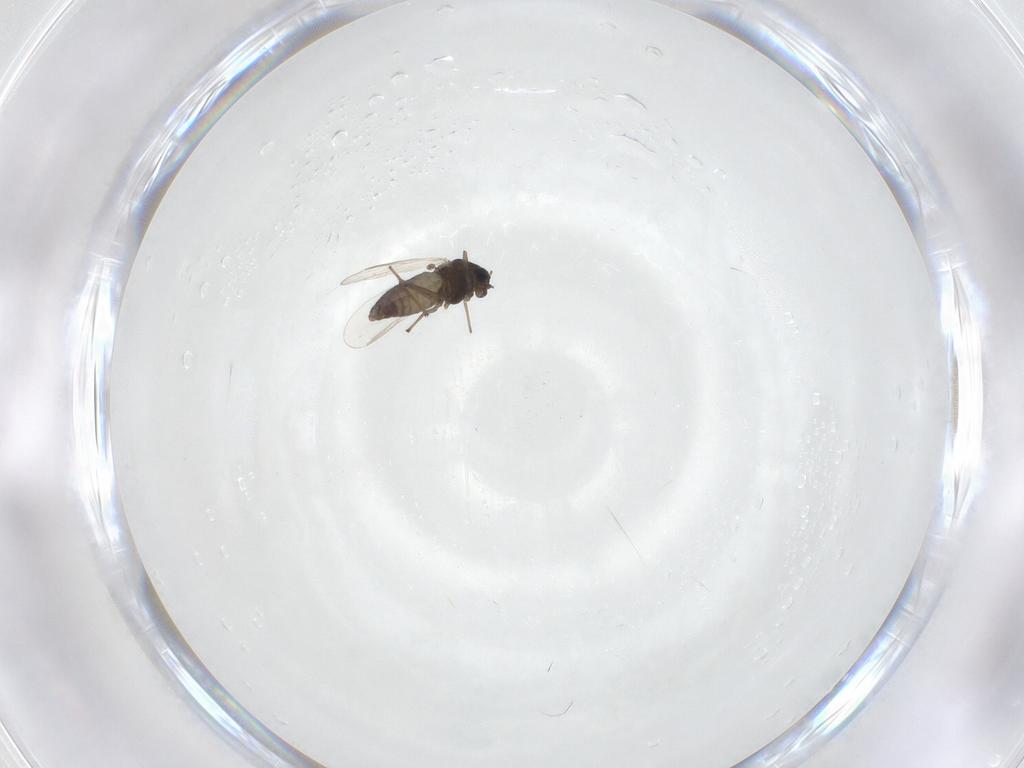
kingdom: Animalia
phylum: Arthropoda
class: Insecta
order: Diptera
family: Chironomidae
